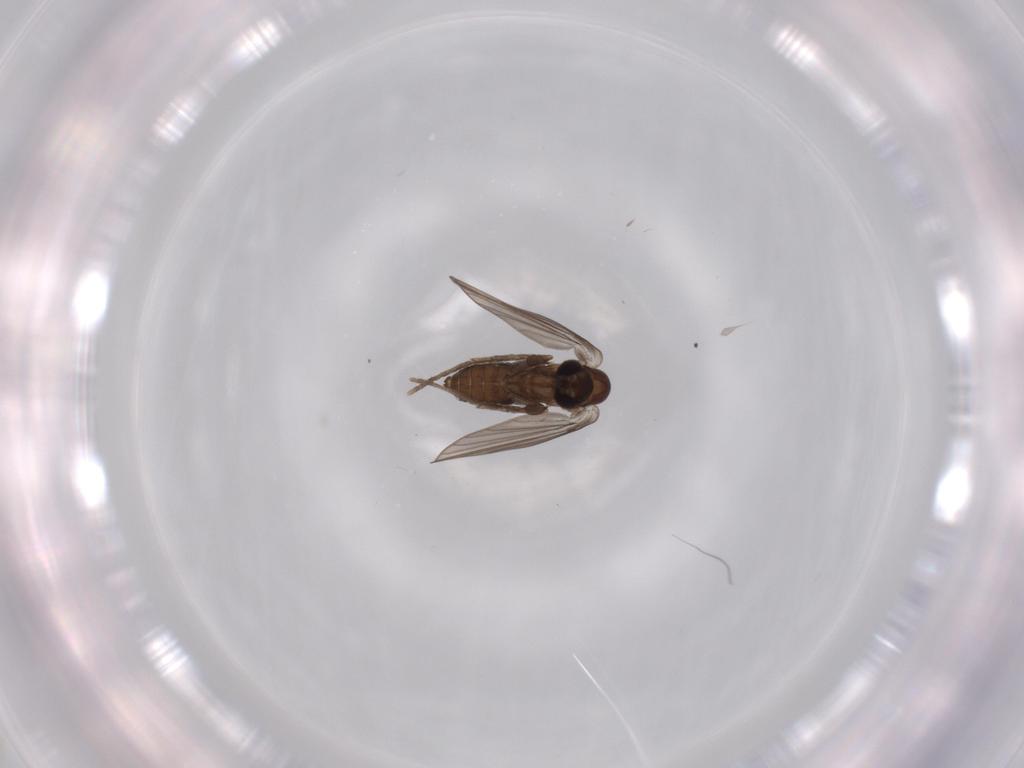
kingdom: Animalia
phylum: Arthropoda
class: Insecta
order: Diptera
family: Psychodidae
